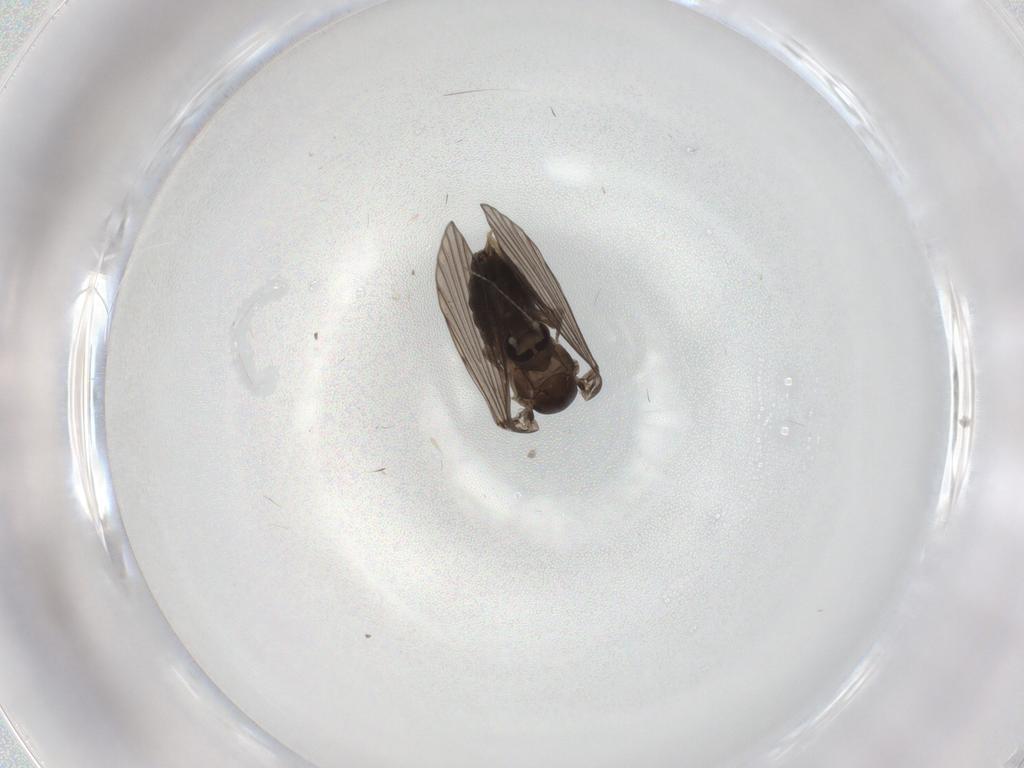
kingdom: Animalia
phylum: Arthropoda
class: Insecta
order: Diptera
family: Psychodidae
